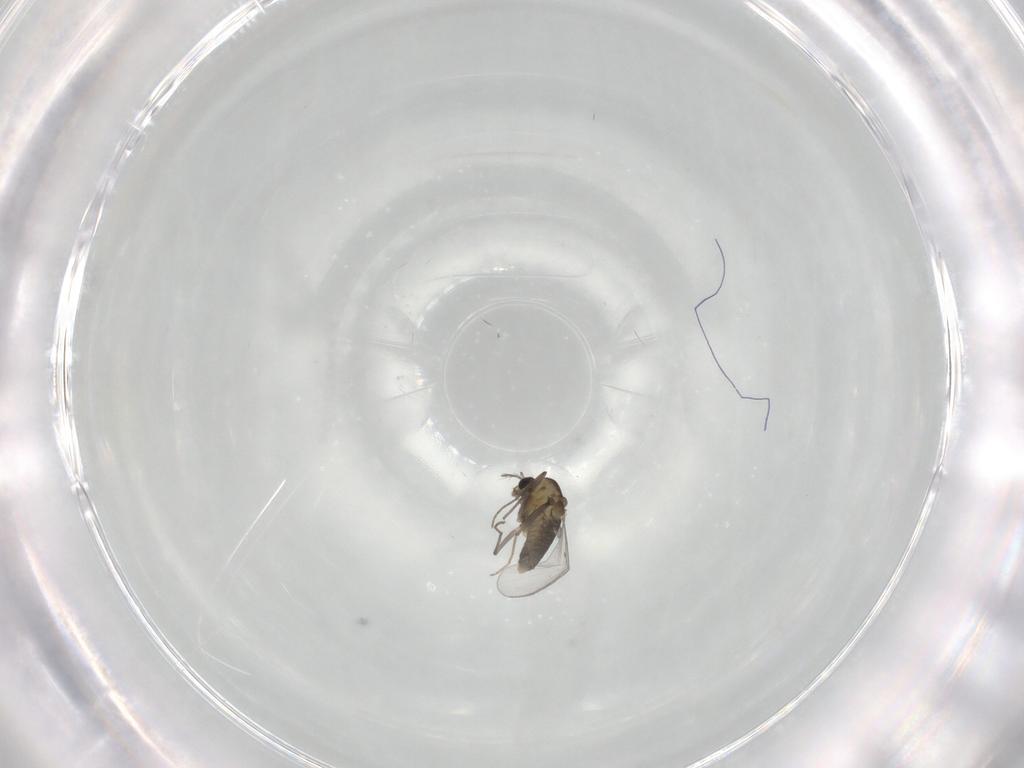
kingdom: Animalia
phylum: Arthropoda
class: Insecta
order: Diptera
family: Chironomidae
